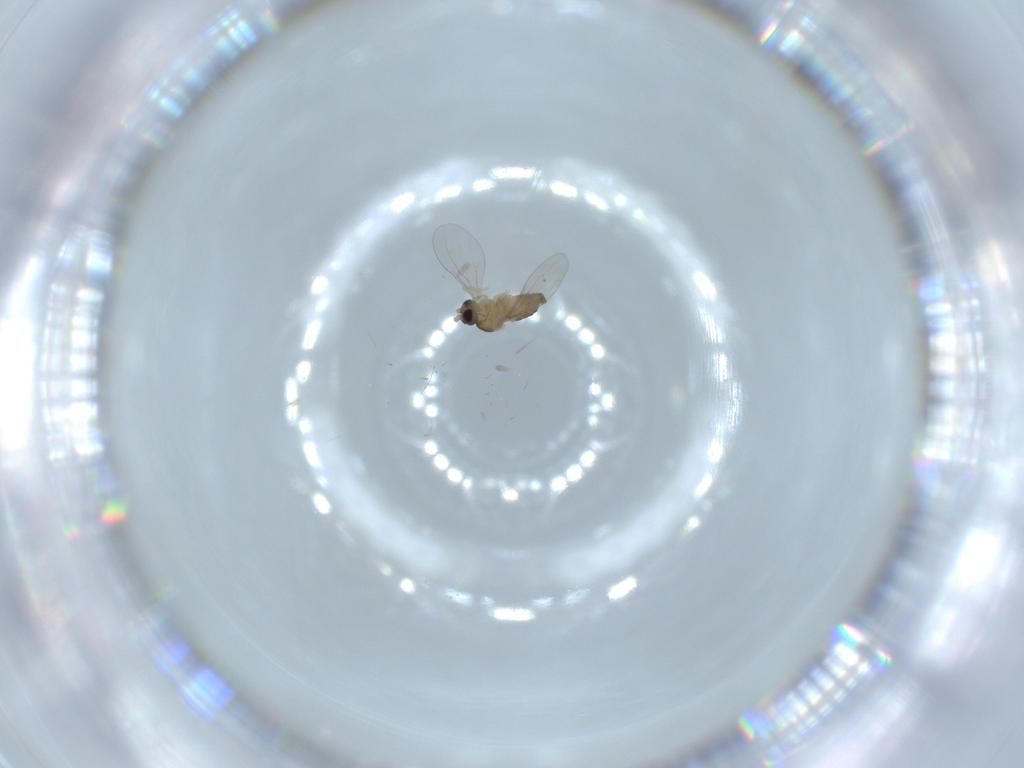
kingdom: Animalia
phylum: Arthropoda
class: Insecta
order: Diptera
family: Cecidomyiidae
